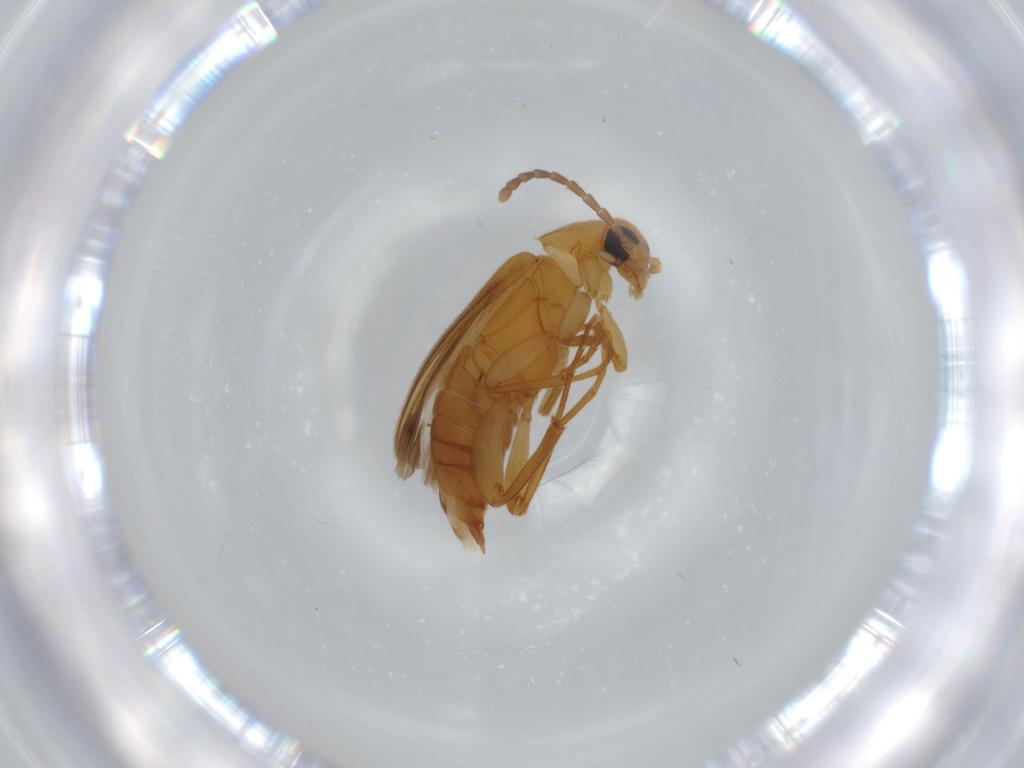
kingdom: Animalia
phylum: Arthropoda
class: Insecta
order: Coleoptera
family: Scraptiidae
